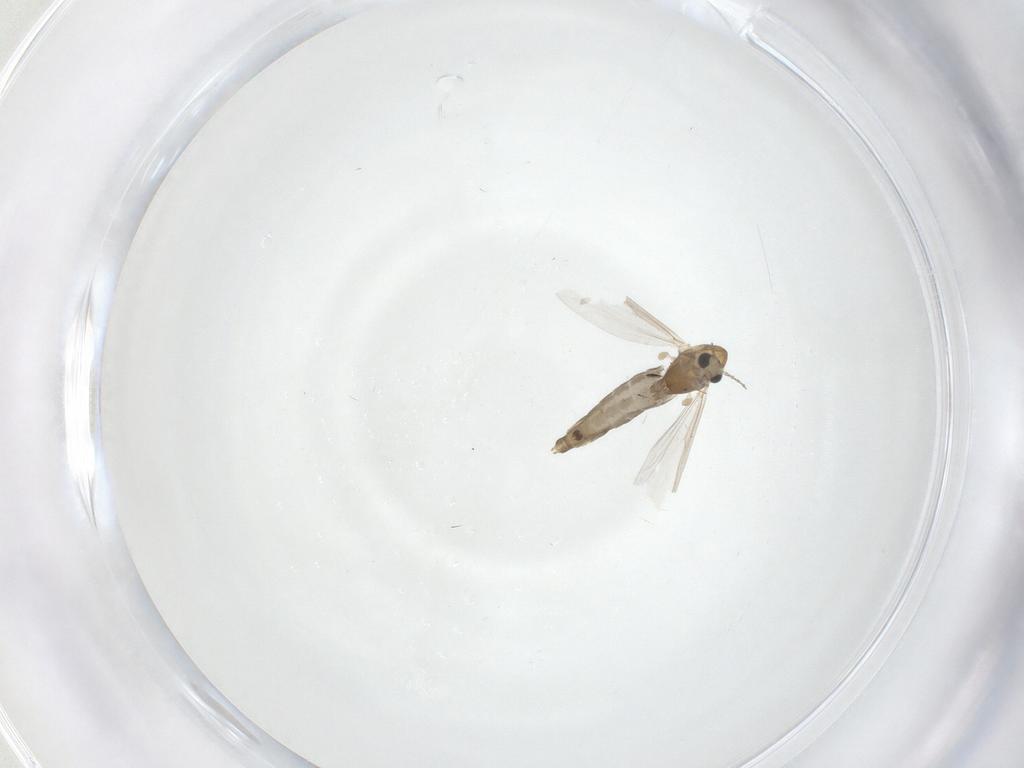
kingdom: Animalia
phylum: Arthropoda
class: Insecta
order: Diptera
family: Chironomidae
